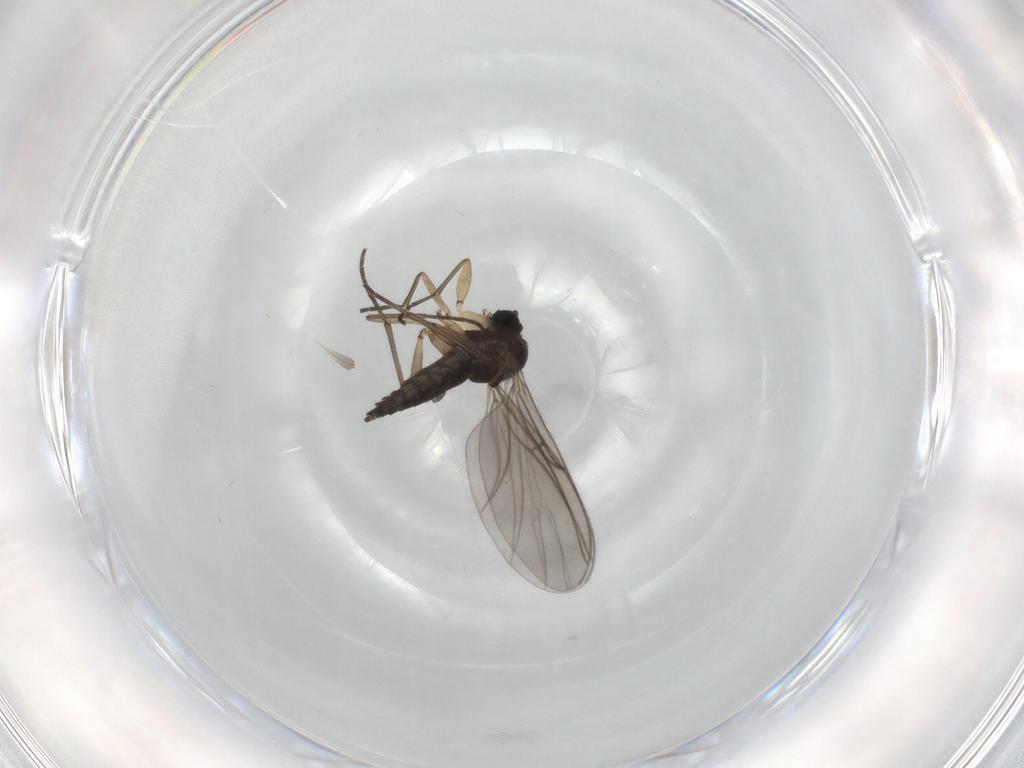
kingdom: Animalia
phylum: Arthropoda
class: Insecta
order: Diptera
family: Sciaridae
